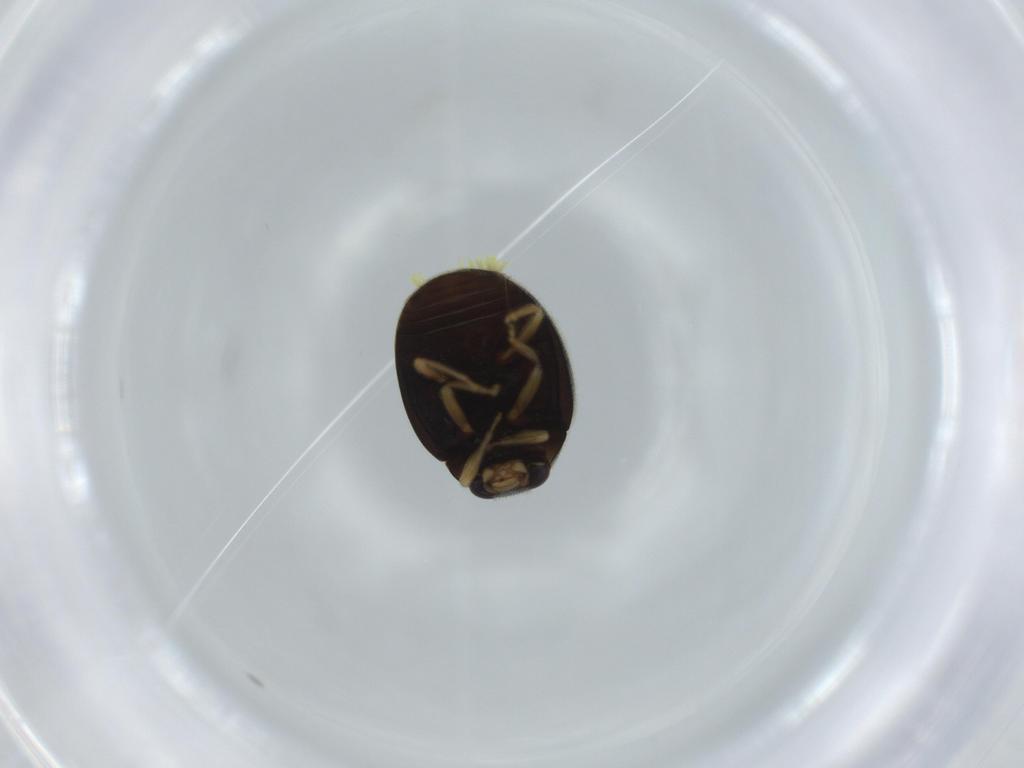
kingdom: Animalia
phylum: Arthropoda
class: Insecta
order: Coleoptera
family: Coccinellidae
